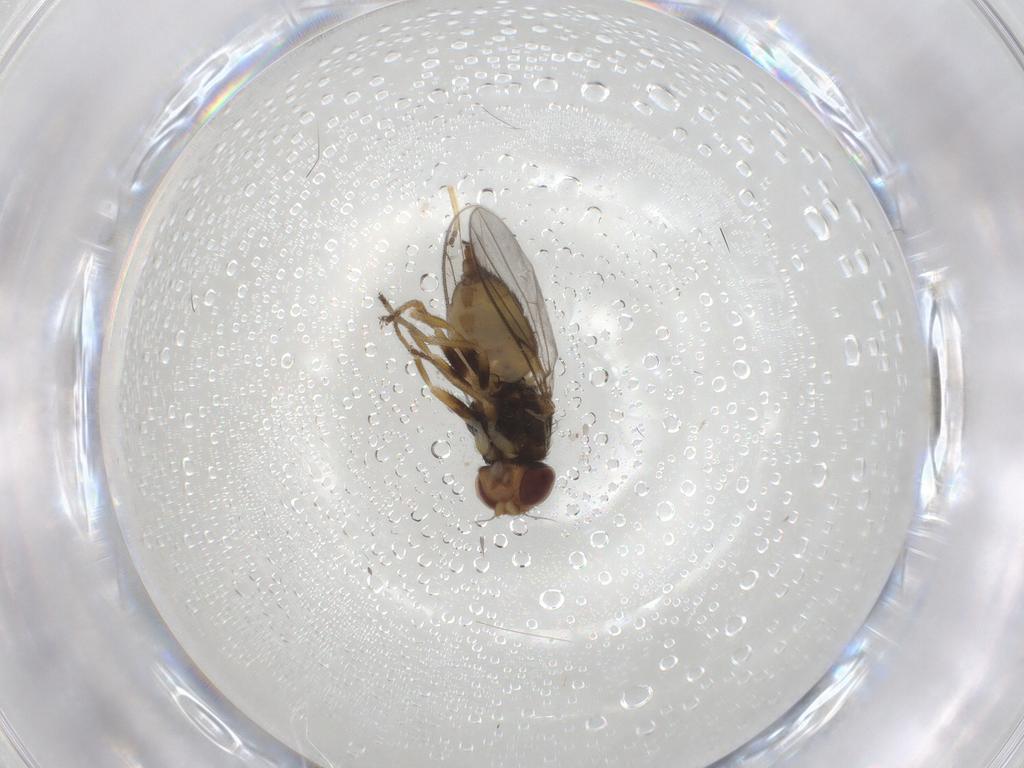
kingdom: Animalia
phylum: Arthropoda
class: Insecta
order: Diptera
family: Chloropidae
